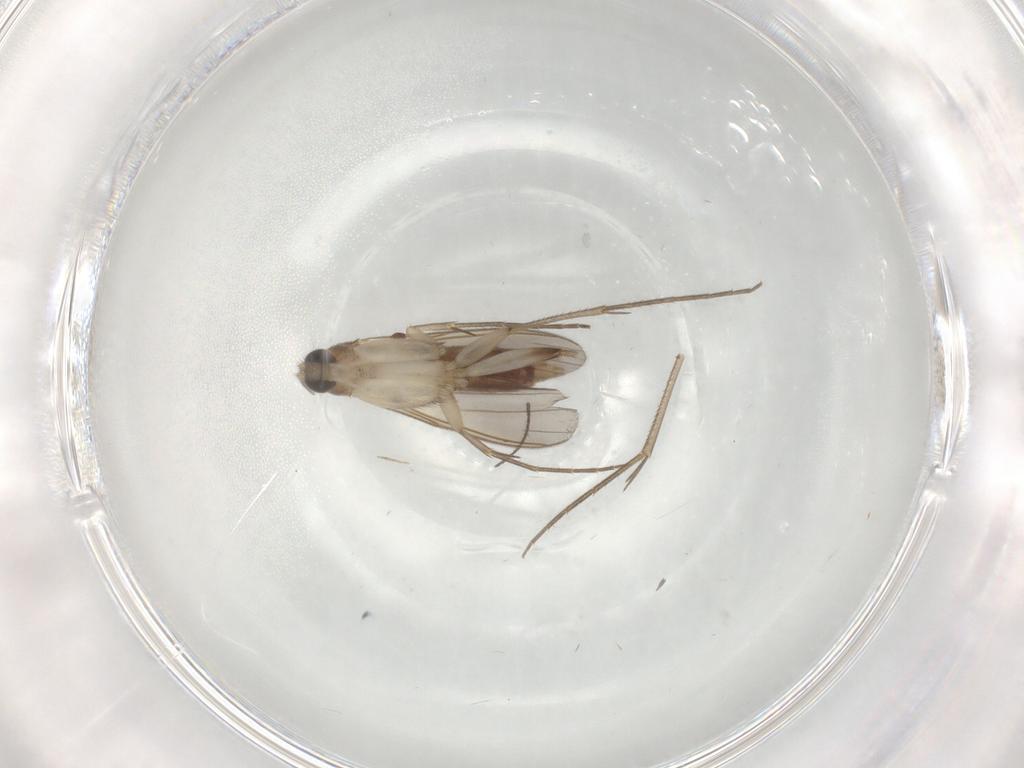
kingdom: Animalia
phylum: Arthropoda
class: Insecta
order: Diptera
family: Mycetophilidae
